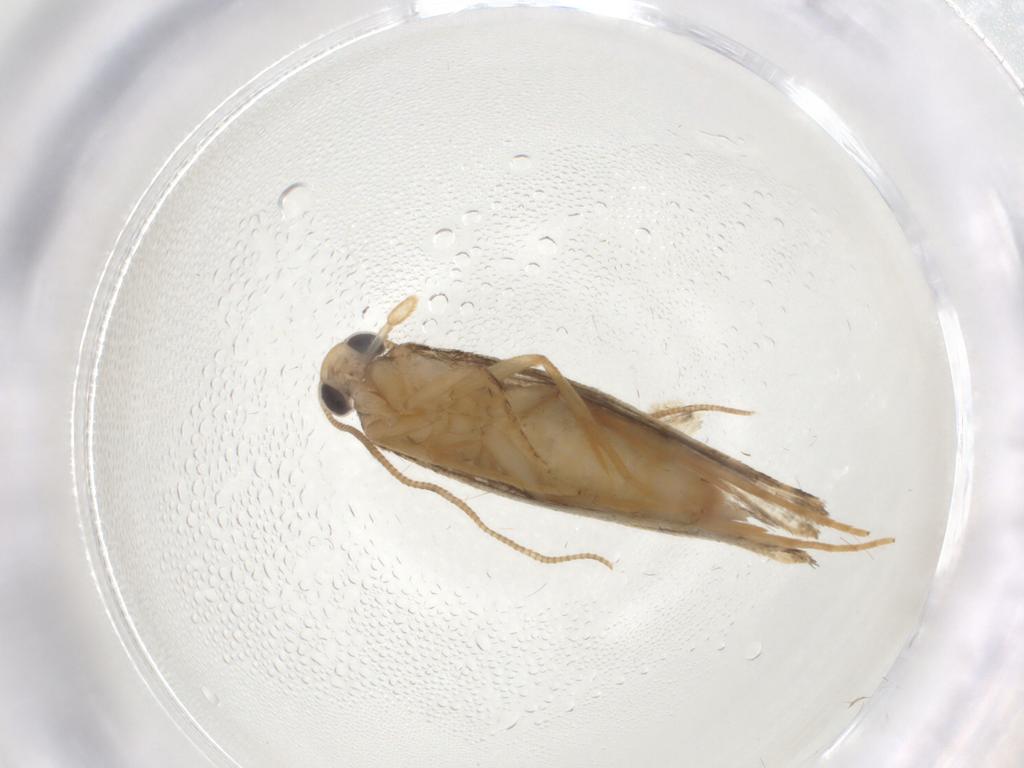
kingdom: Animalia
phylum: Arthropoda
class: Insecta
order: Lepidoptera
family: Tineidae
